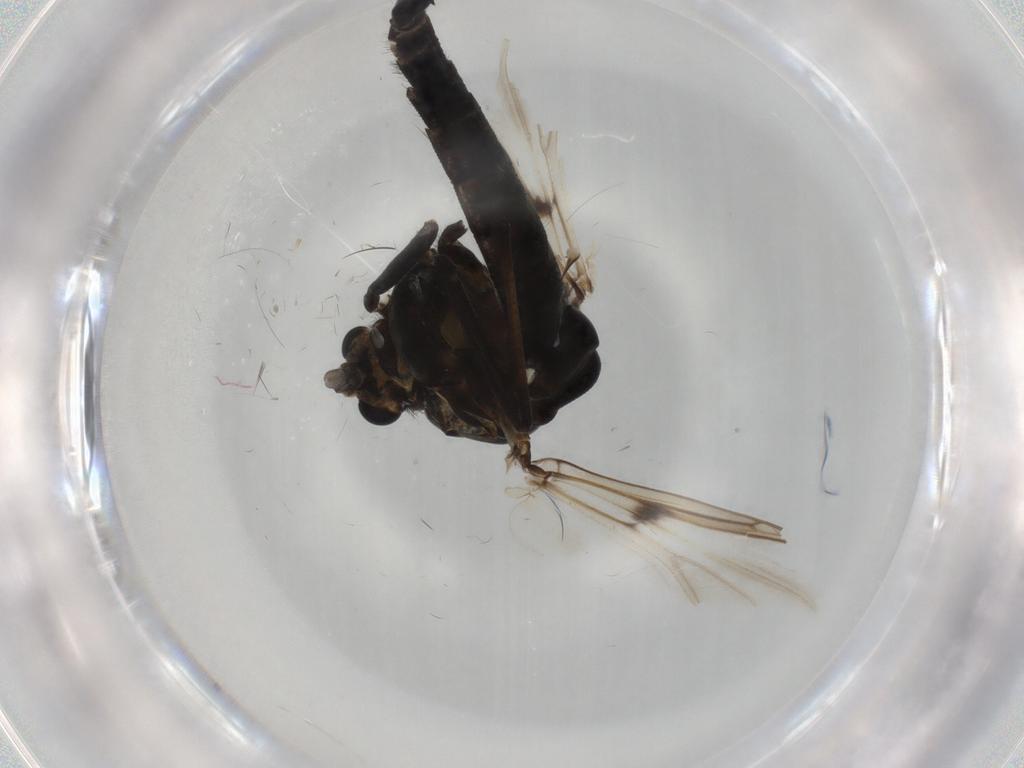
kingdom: Animalia
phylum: Arthropoda
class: Insecta
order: Diptera
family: Chironomidae
